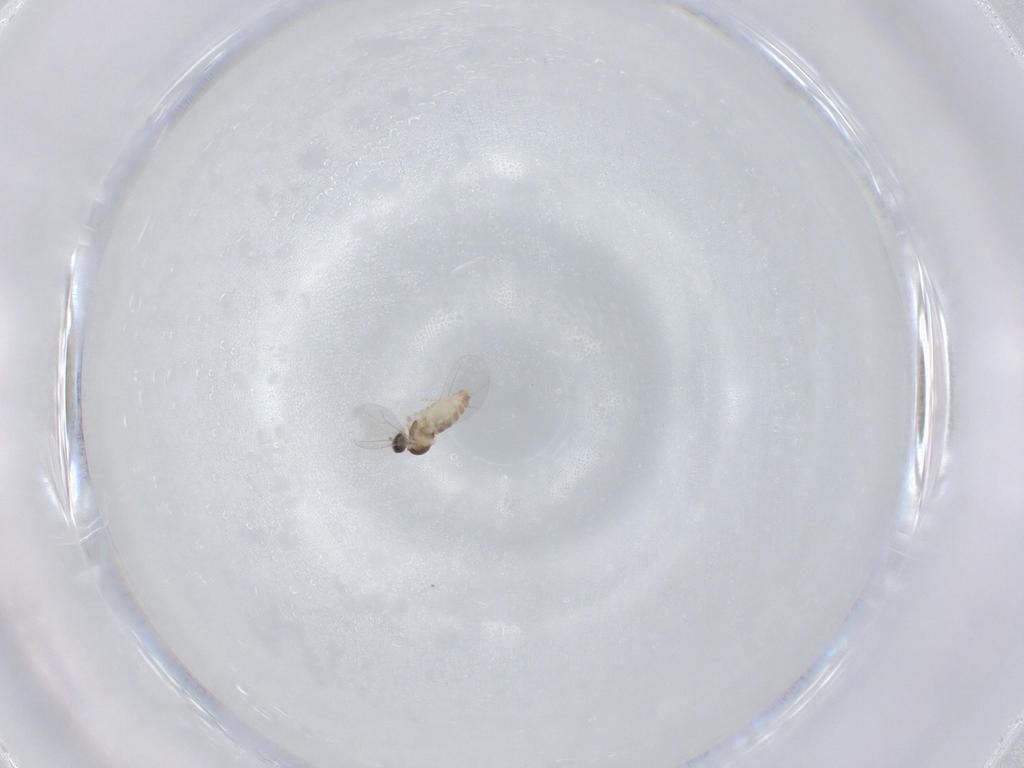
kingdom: Animalia
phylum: Arthropoda
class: Insecta
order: Diptera
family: Cecidomyiidae
